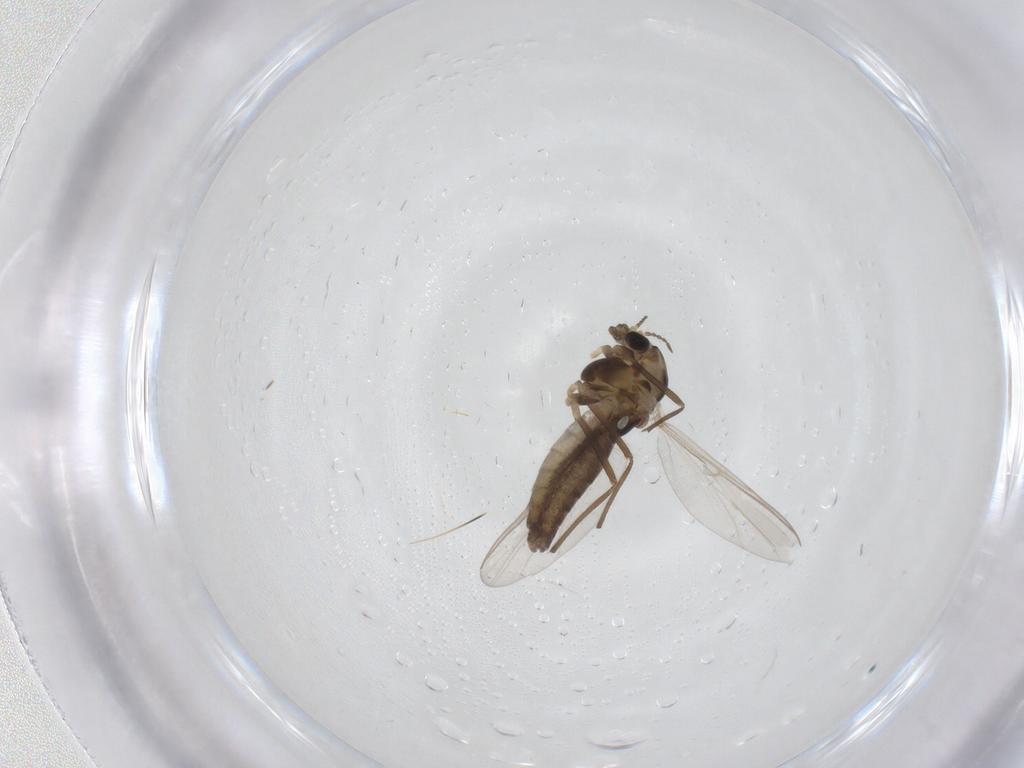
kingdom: Animalia
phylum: Arthropoda
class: Insecta
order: Diptera
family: Chironomidae
